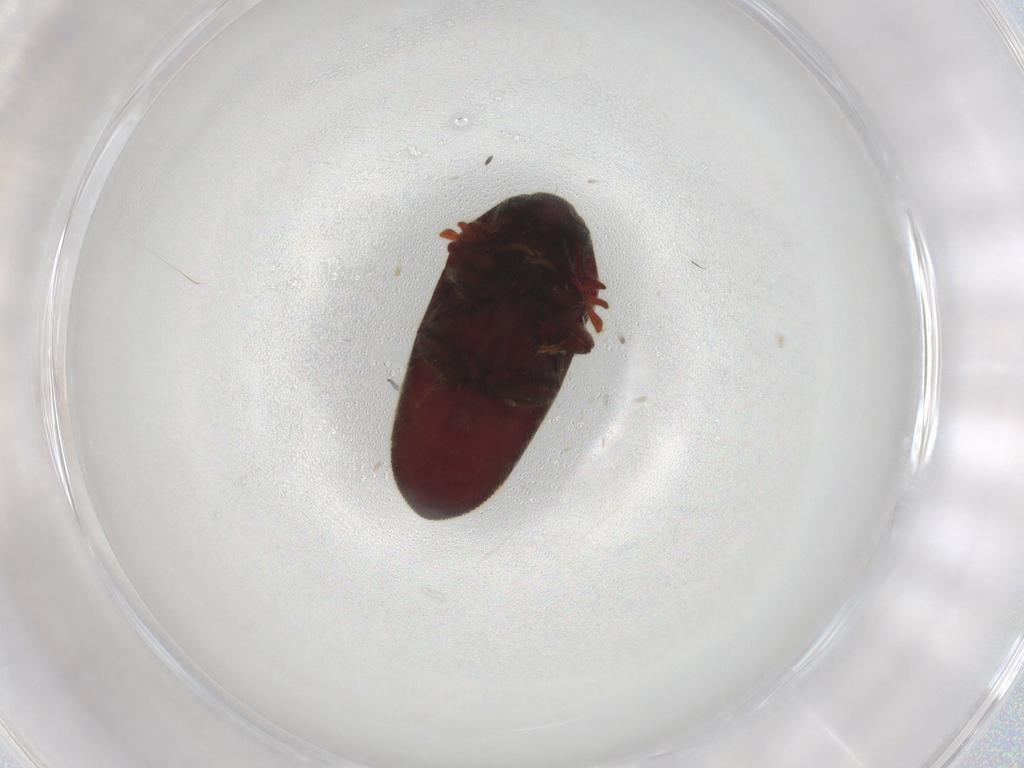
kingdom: Animalia
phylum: Arthropoda
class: Insecta
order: Coleoptera
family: Throscidae
